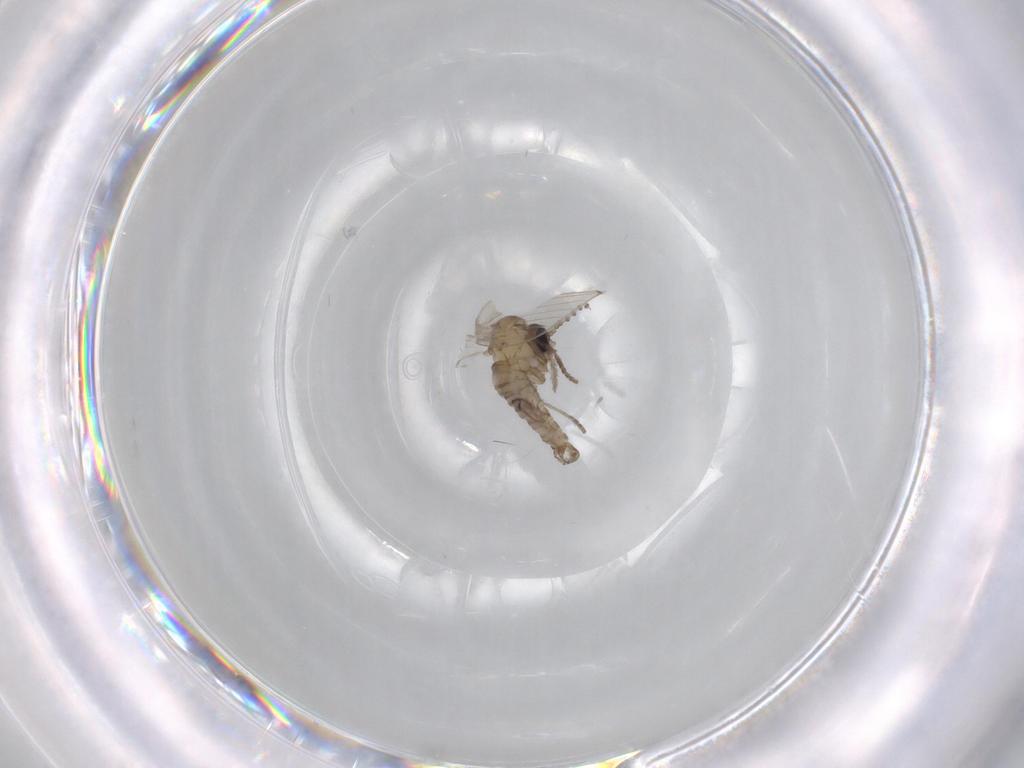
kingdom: Animalia
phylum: Arthropoda
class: Insecta
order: Diptera
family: Psychodidae
